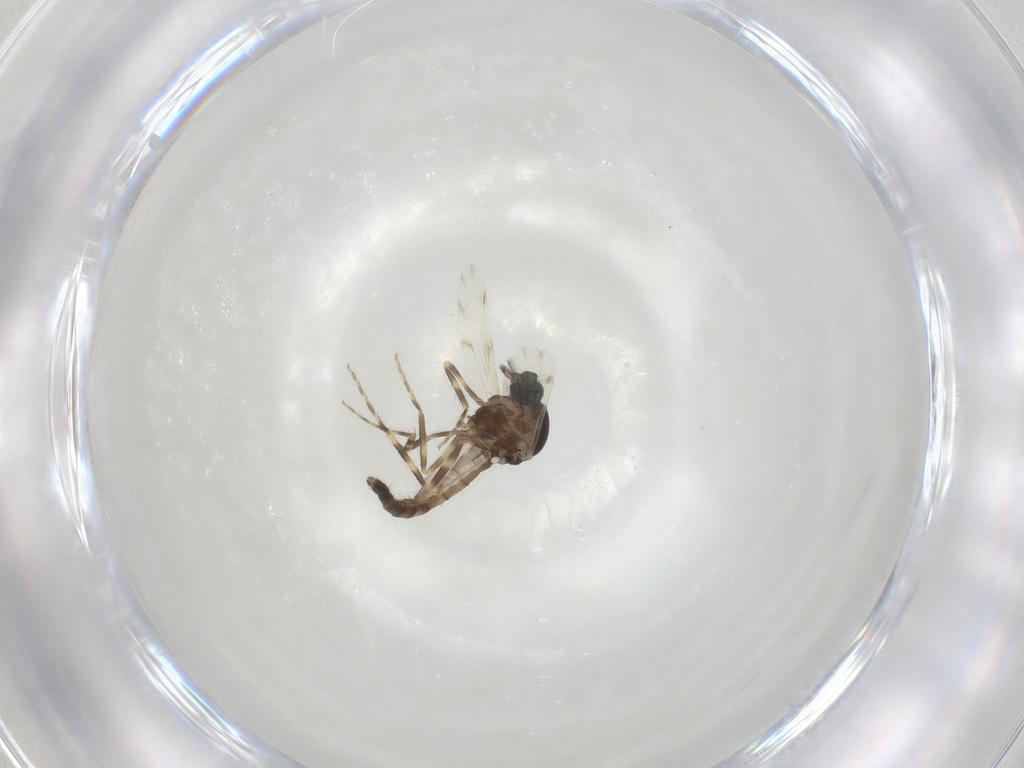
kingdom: Animalia
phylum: Arthropoda
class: Insecta
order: Diptera
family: Ceratopogonidae
